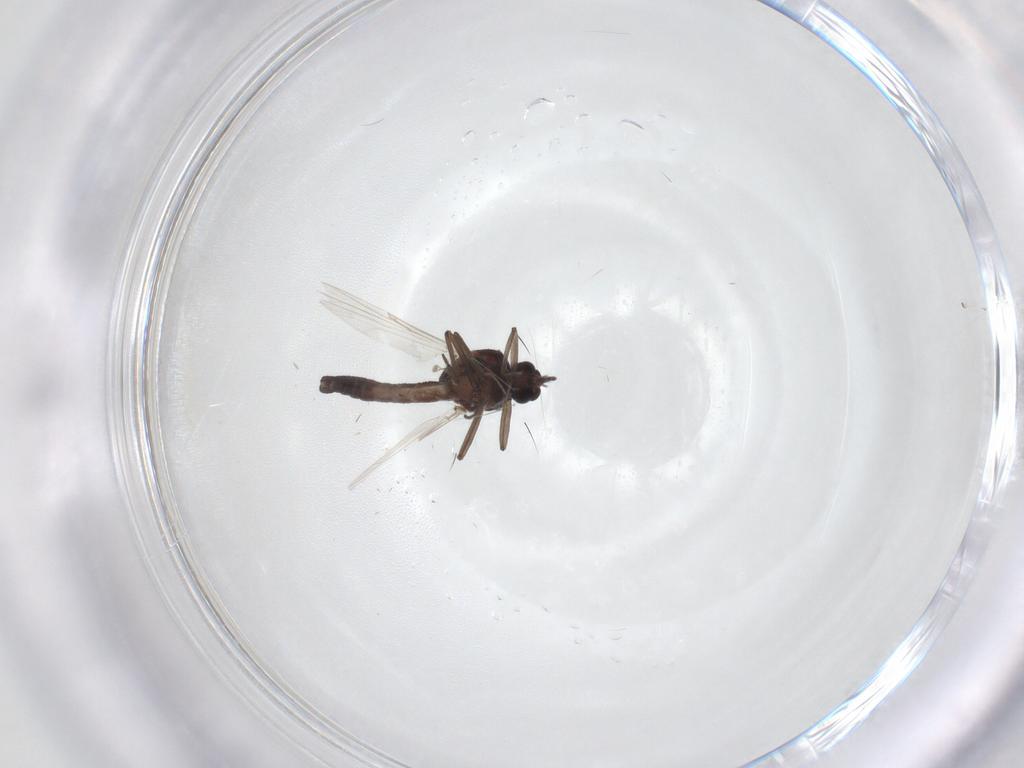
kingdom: Animalia
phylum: Arthropoda
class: Insecta
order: Diptera
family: Ceratopogonidae
